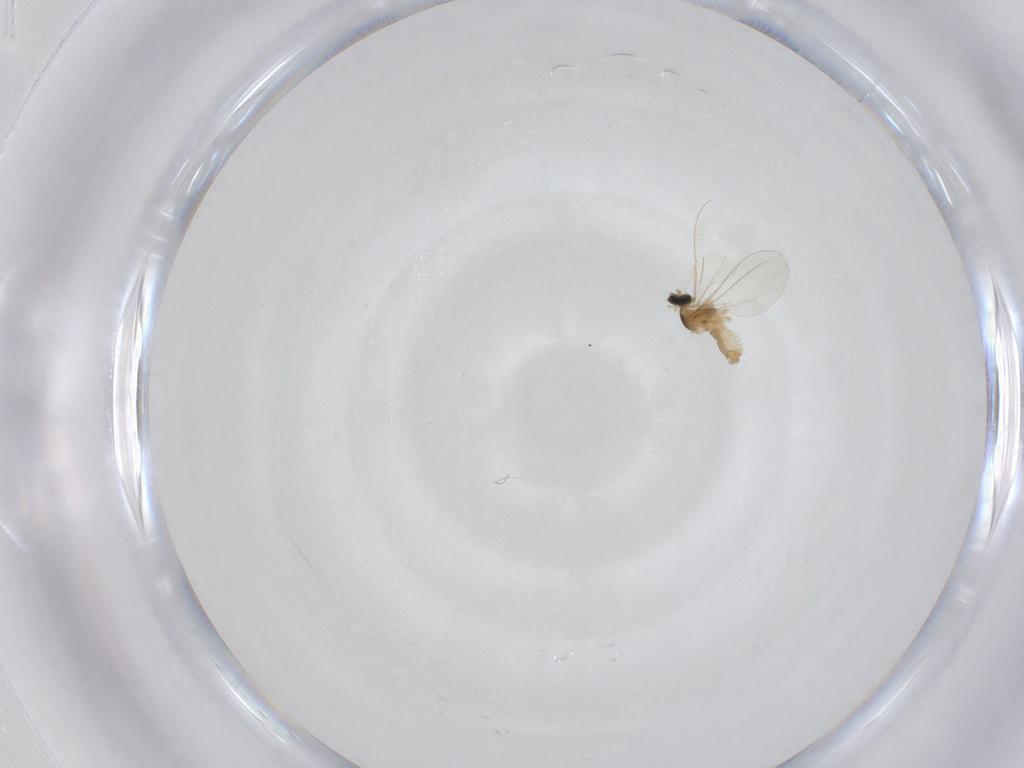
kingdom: Animalia
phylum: Arthropoda
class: Insecta
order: Diptera
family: Cecidomyiidae
